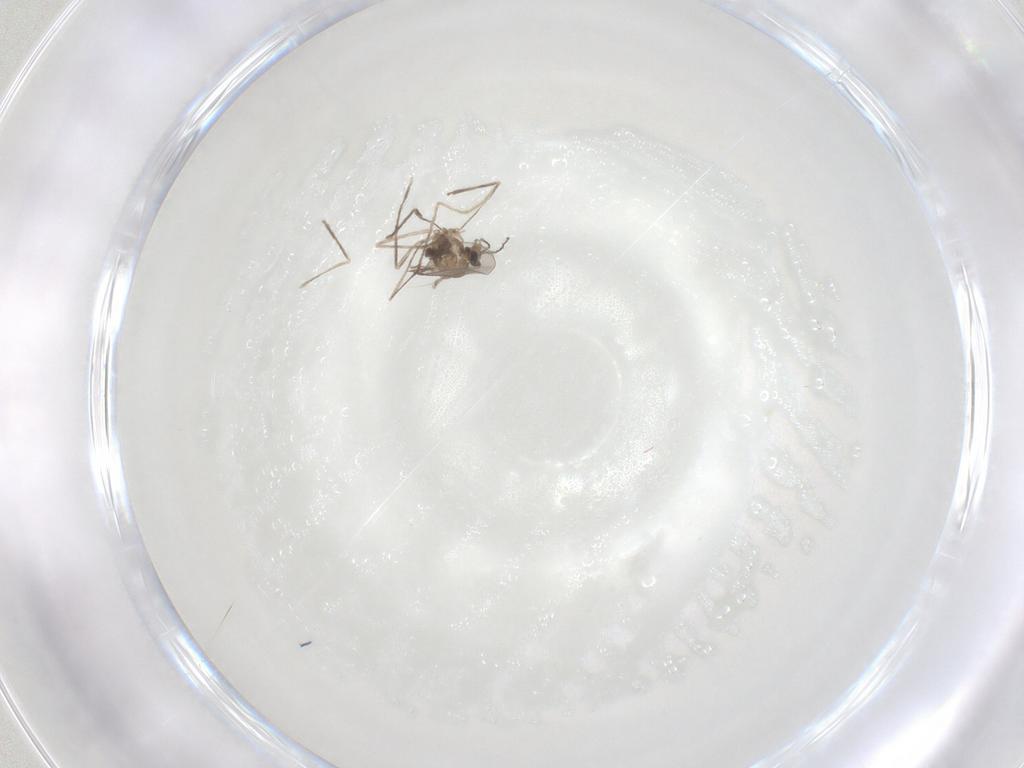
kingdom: Animalia
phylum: Arthropoda
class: Insecta
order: Diptera
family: Cecidomyiidae
